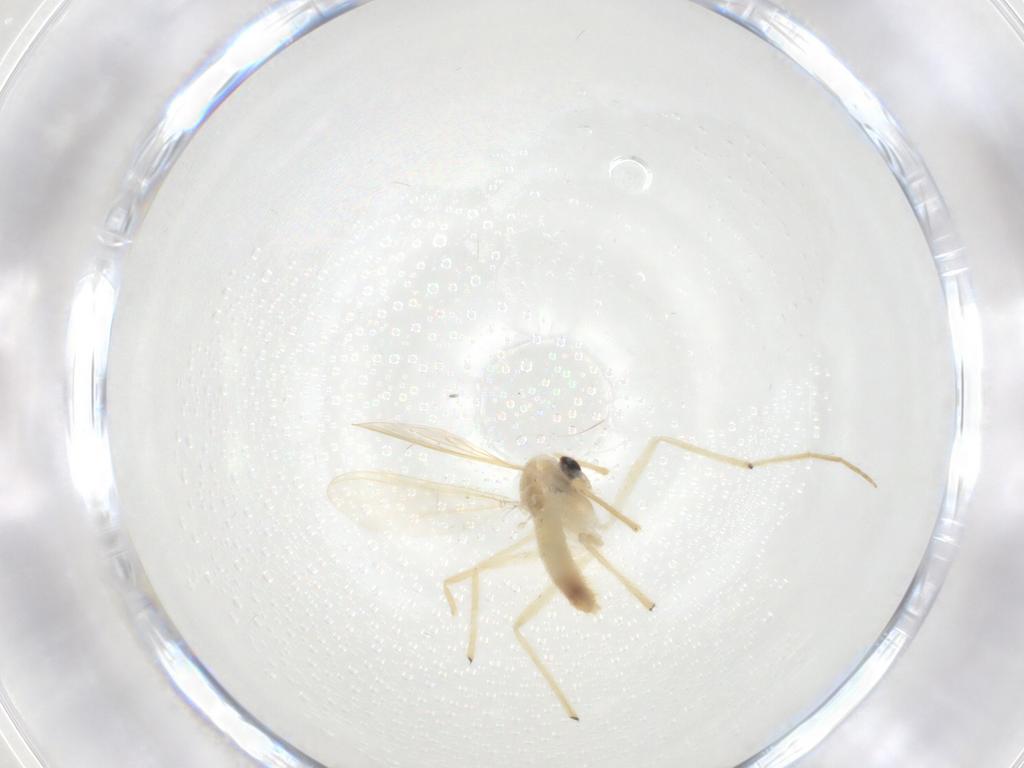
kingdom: Animalia
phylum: Arthropoda
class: Insecta
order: Diptera
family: Chironomidae
